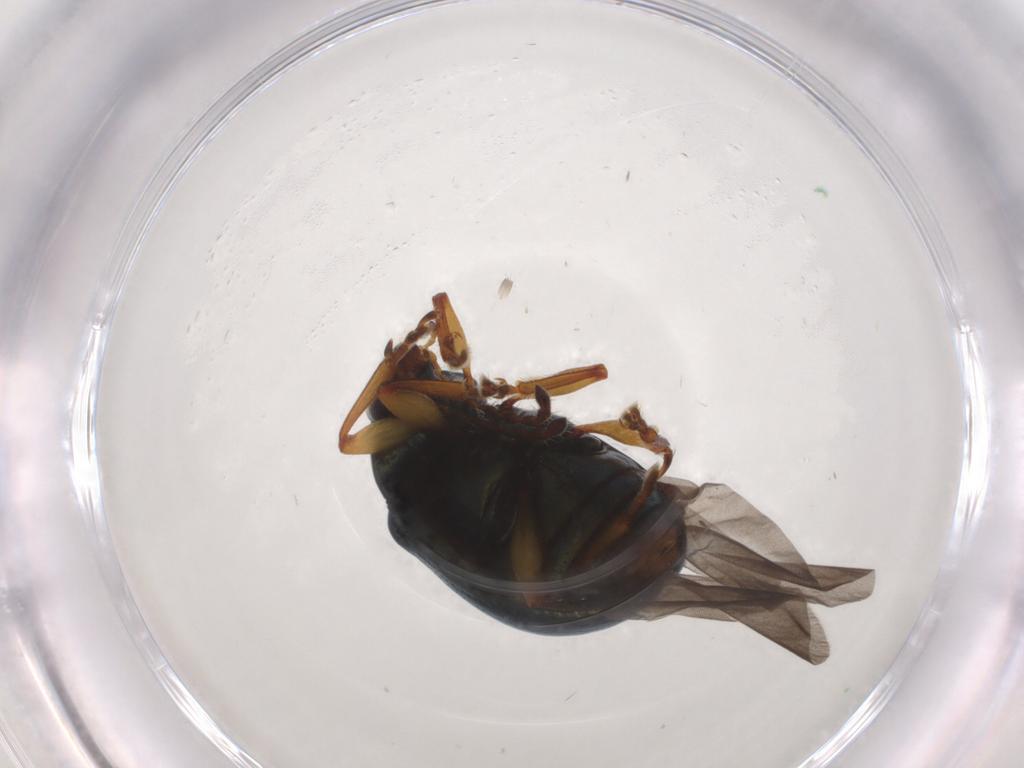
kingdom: Animalia
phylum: Arthropoda
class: Insecta
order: Coleoptera
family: Chrysomelidae
